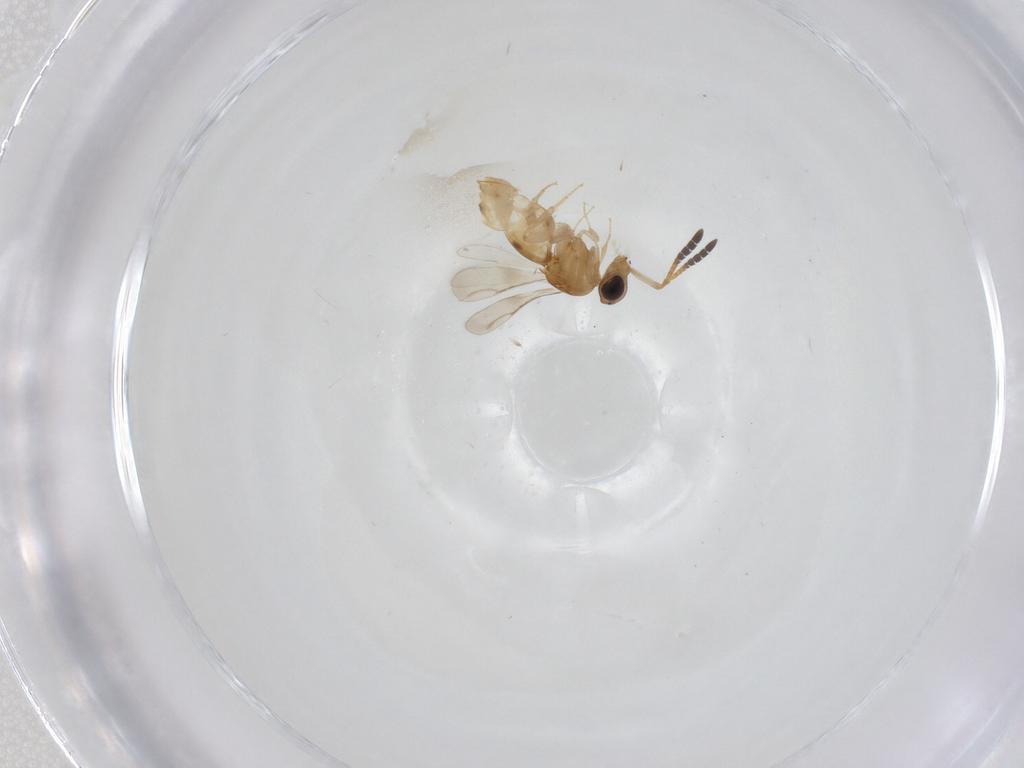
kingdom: Animalia
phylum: Arthropoda
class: Insecta
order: Hymenoptera
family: Ceraphronidae
